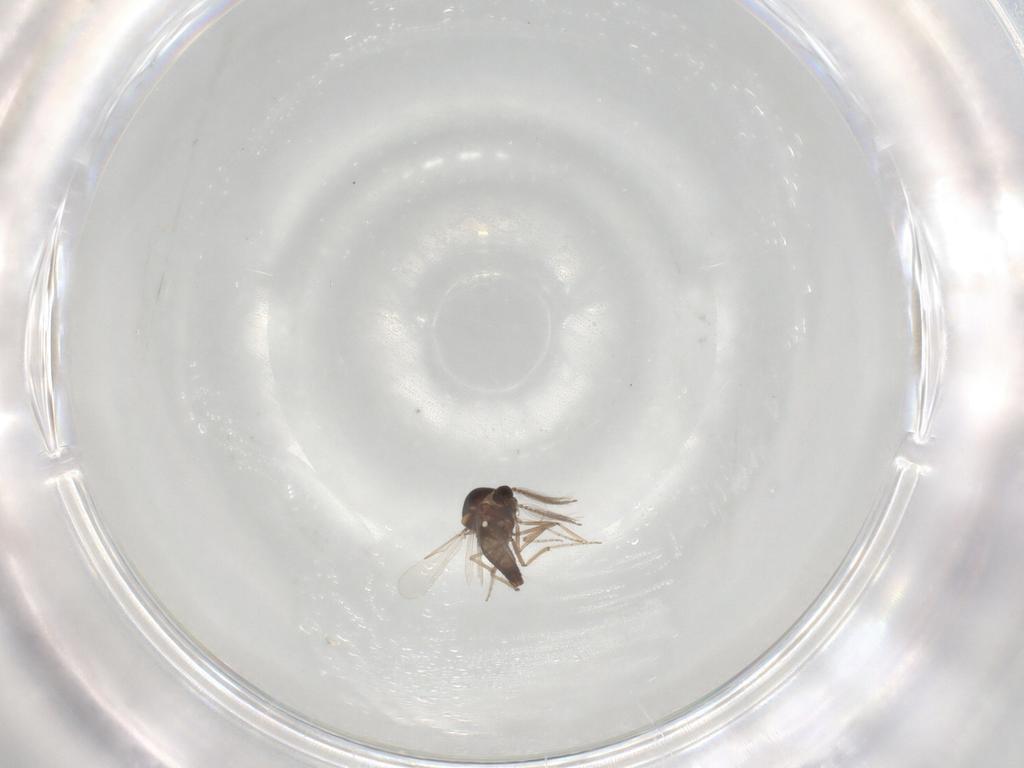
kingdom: Animalia
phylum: Arthropoda
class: Insecta
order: Diptera
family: Ceratopogonidae
